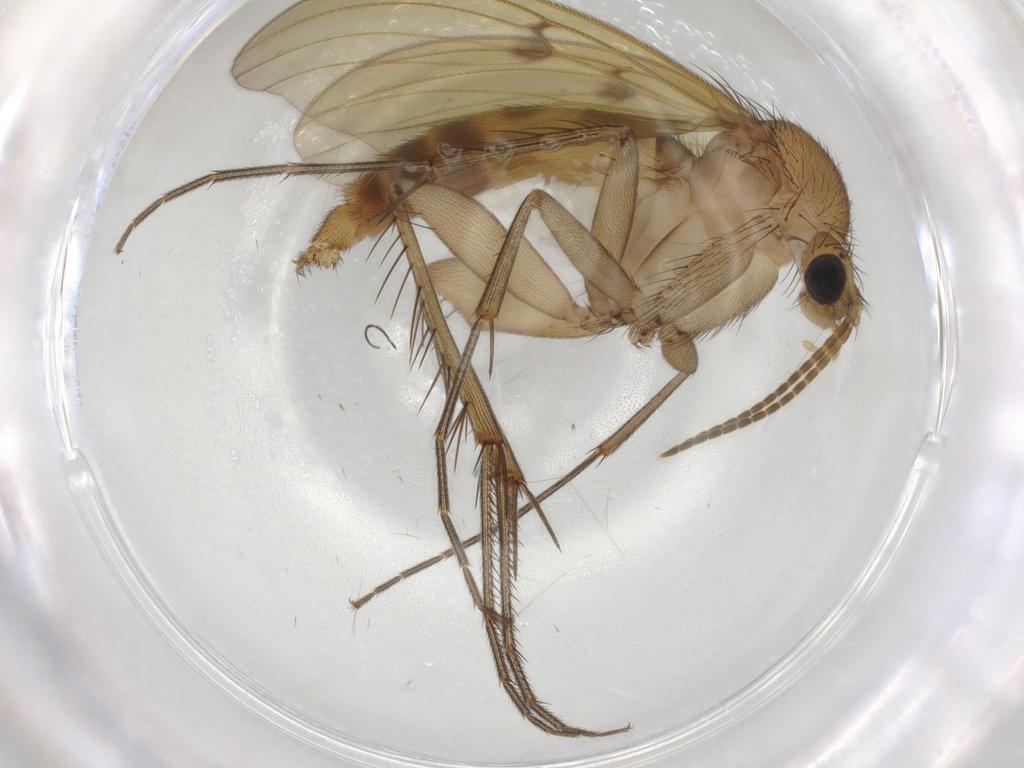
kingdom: Animalia
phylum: Arthropoda
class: Insecta
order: Diptera
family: Mycetophilidae
